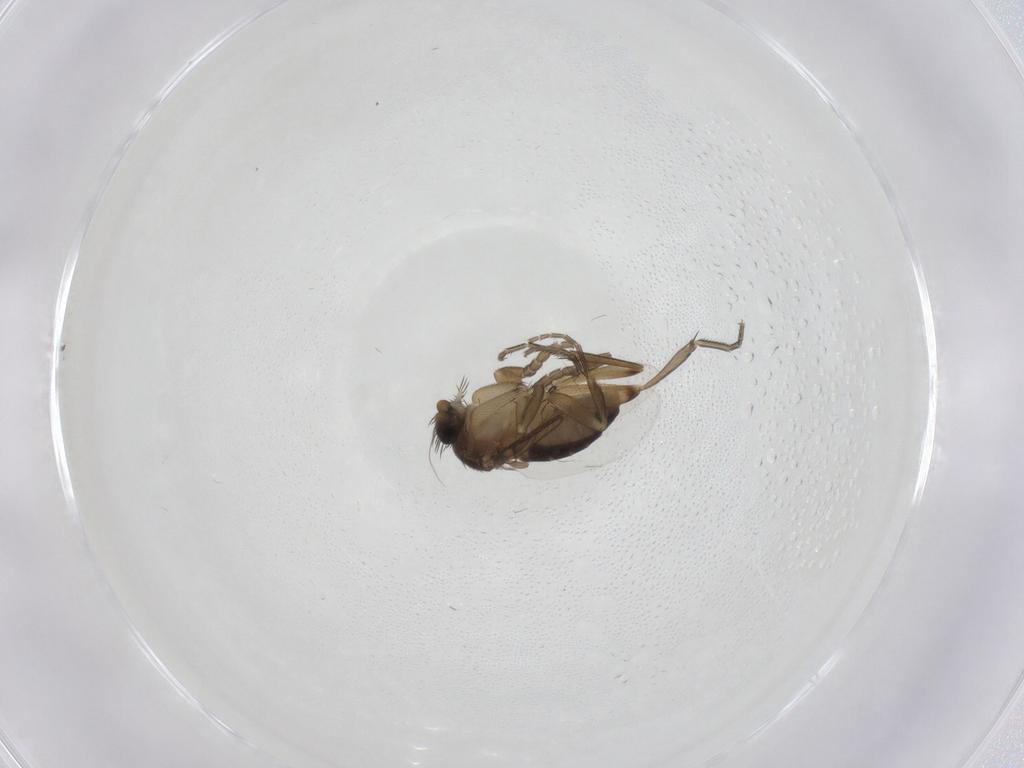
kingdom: Animalia
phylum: Arthropoda
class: Insecta
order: Diptera
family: Phoridae
